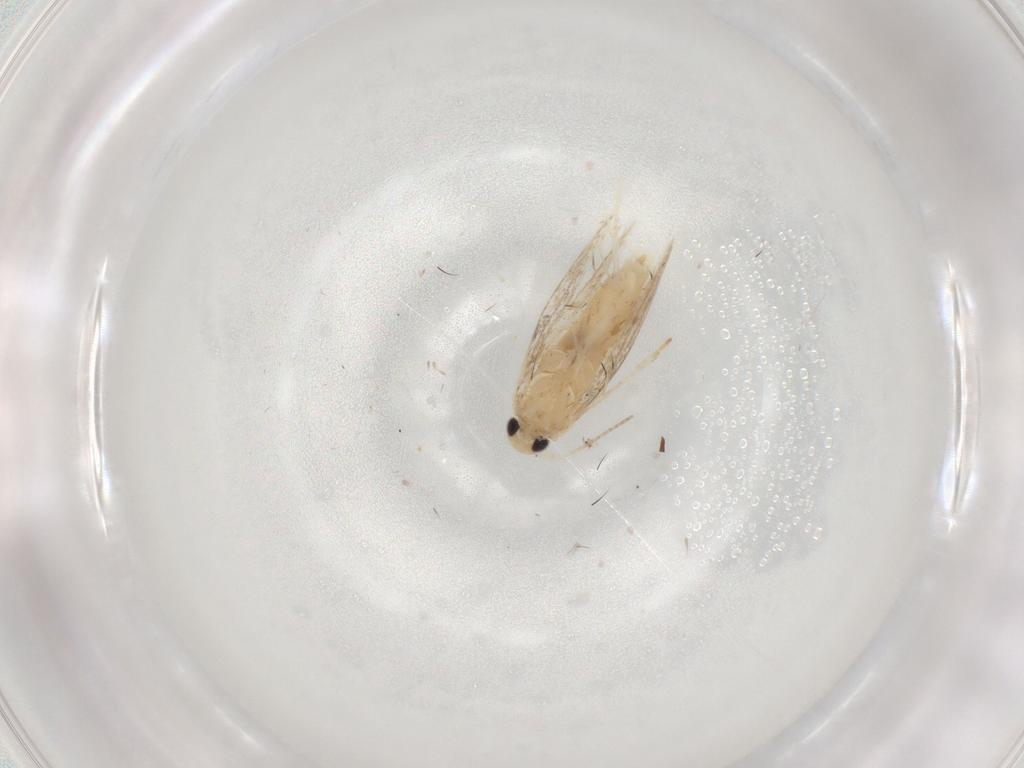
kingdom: Animalia
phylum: Arthropoda
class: Insecta
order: Lepidoptera
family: Gracillariidae
